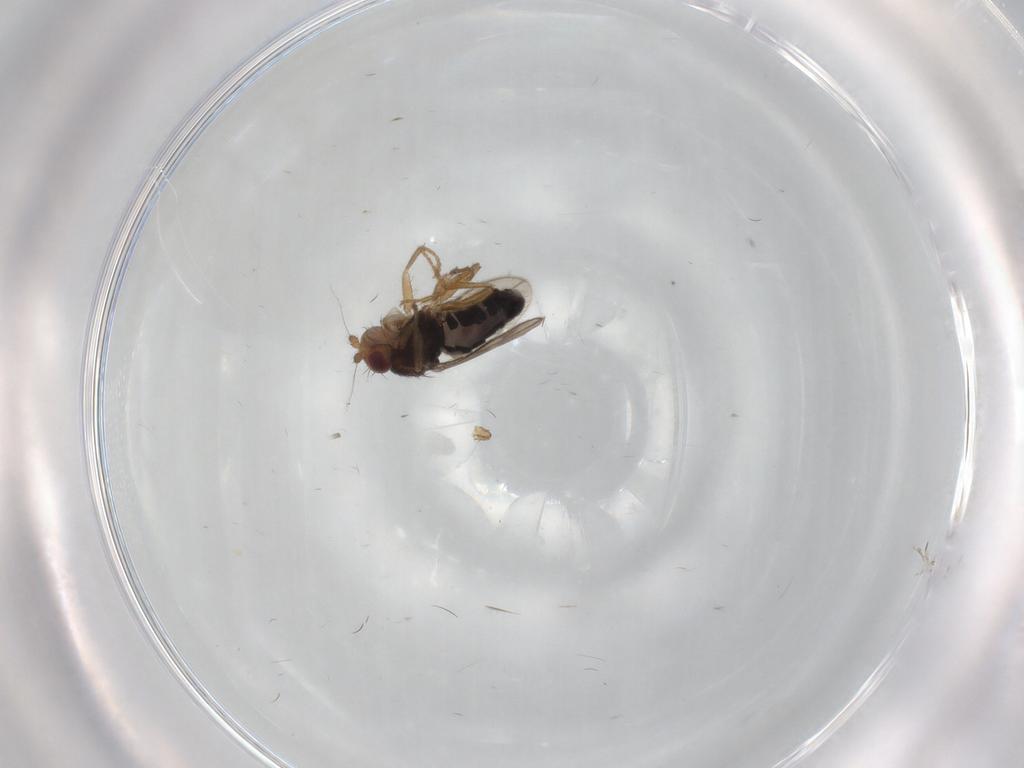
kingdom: Animalia
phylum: Arthropoda
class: Insecta
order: Diptera
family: Sphaeroceridae
